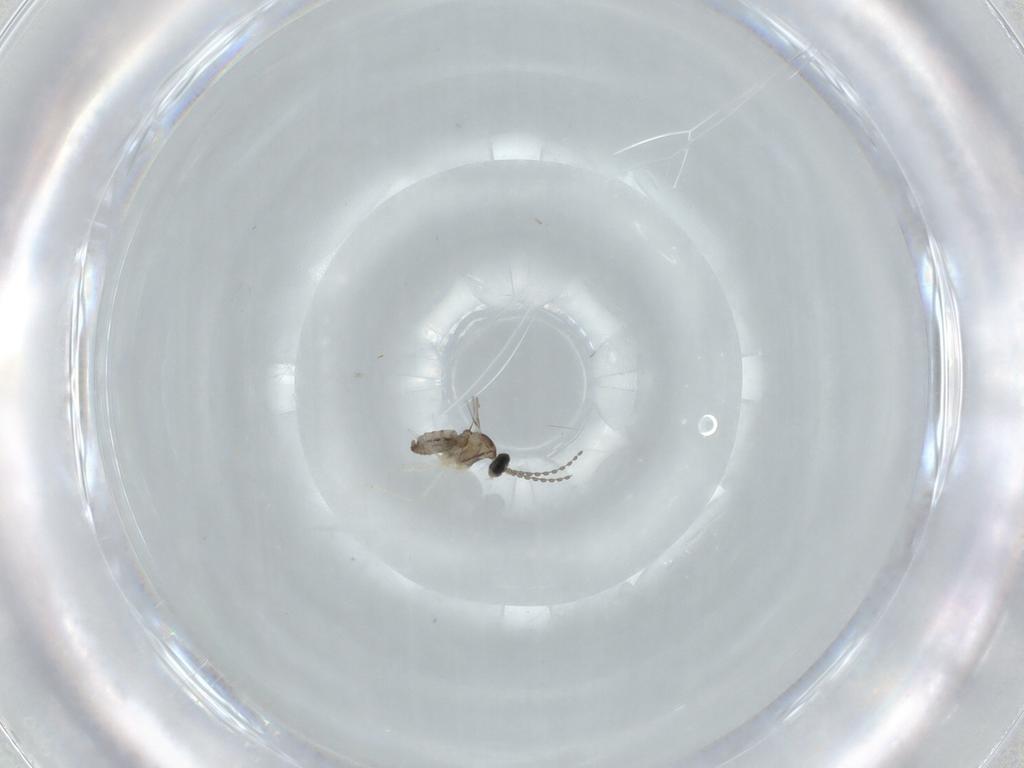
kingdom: Animalia
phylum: Arthropoda
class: Insecta
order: Diptera
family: Cecidomyiidae
